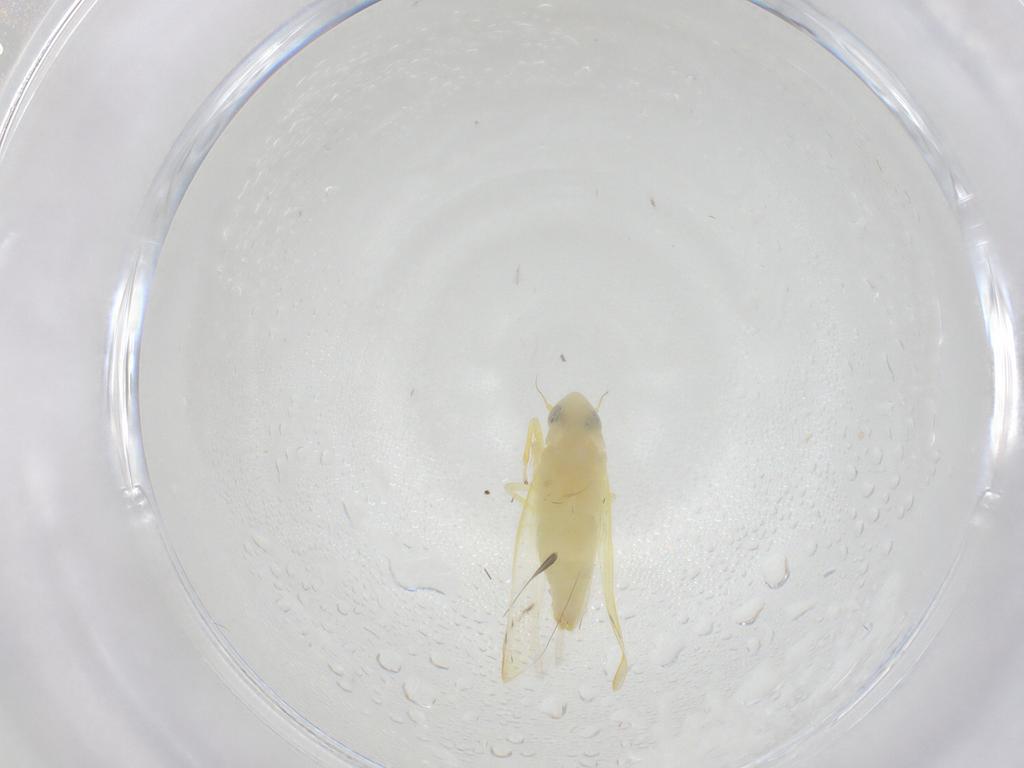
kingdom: Animalia
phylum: Arthropoda
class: Insecta
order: Hemiptera
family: Cicadellidae
